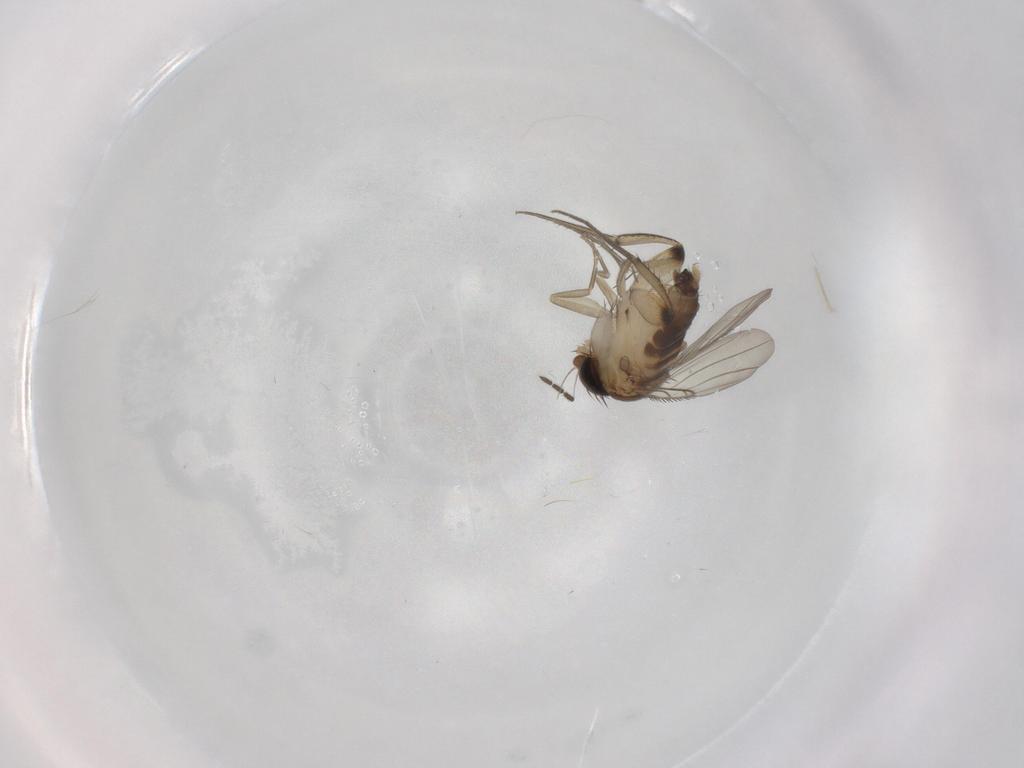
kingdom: Animalia
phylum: Arthropoda
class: Insecta
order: Diptera
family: Phoridae
